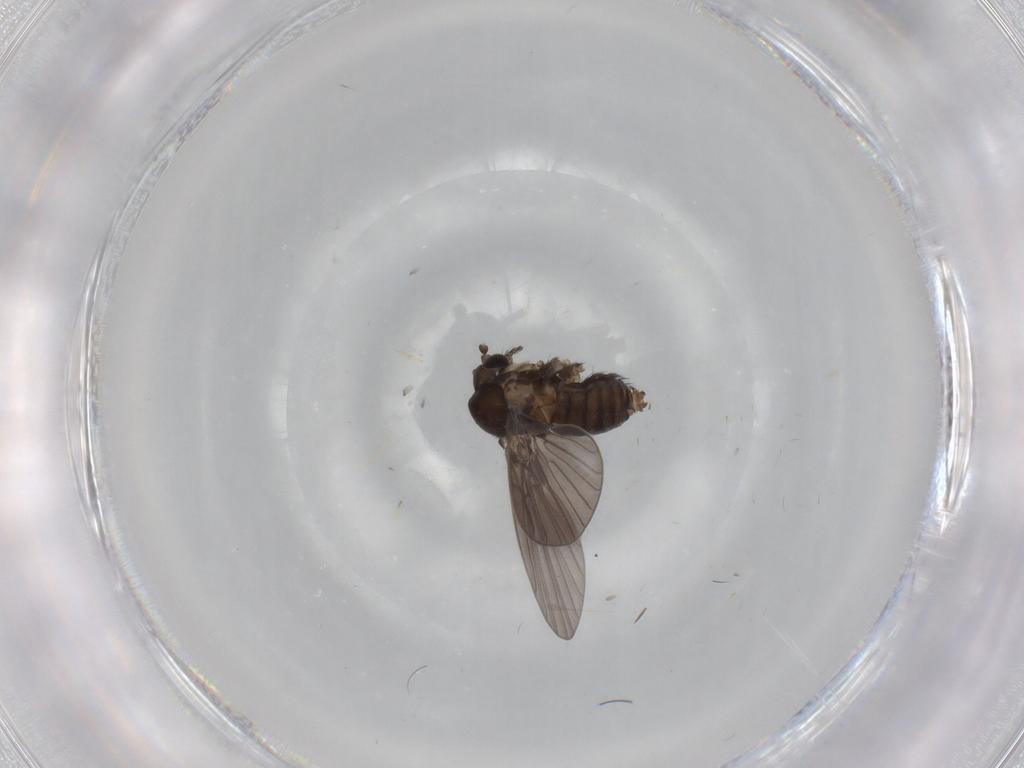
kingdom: Animalia
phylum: Arthropoda
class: Insecta
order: Diptera
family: Psychodidae
